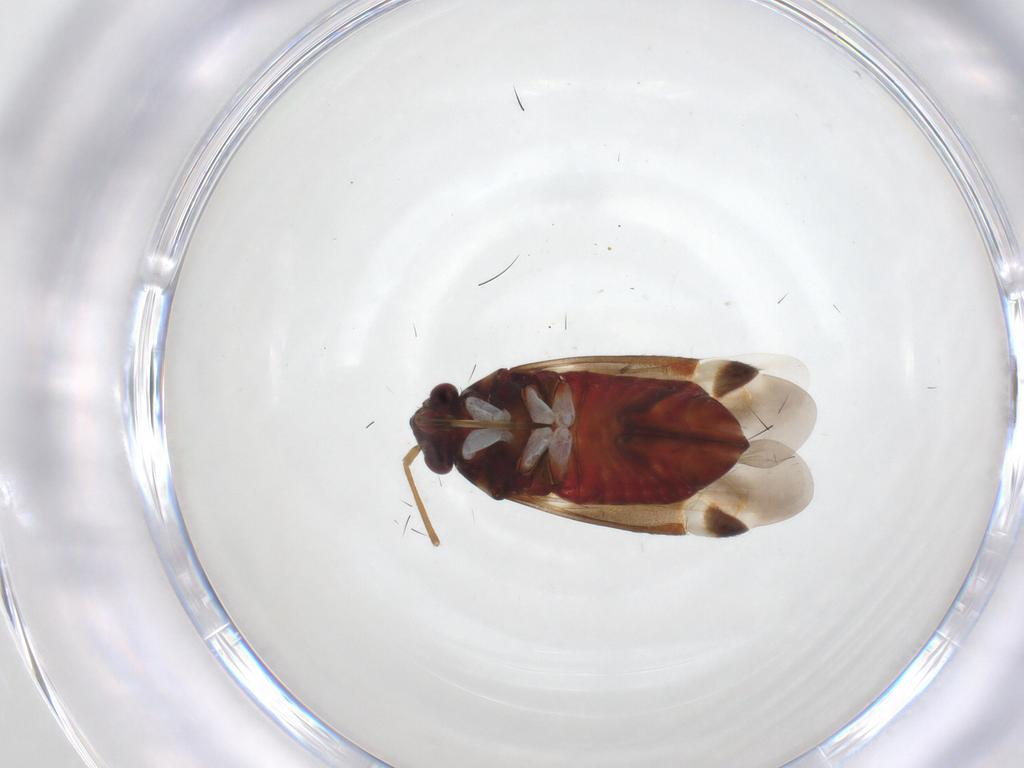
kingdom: Animalia
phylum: Arthropoda
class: Insecta
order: Hemiptera
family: Miridae
